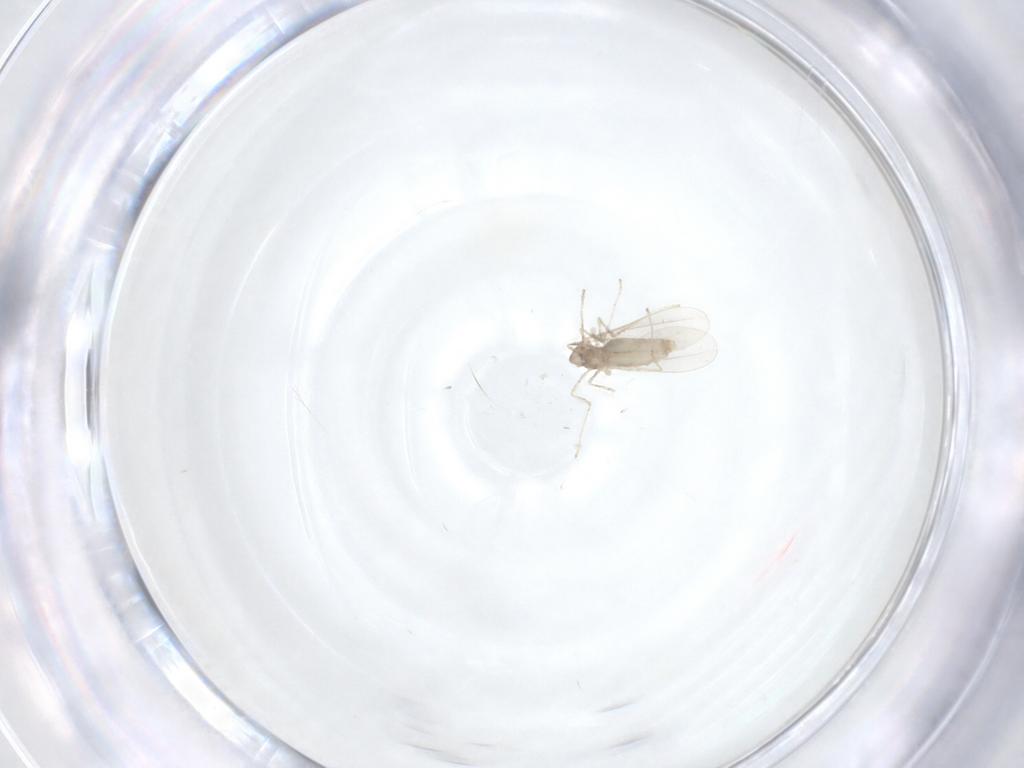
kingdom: Animalia
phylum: Arthropoda
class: Insecta
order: Diptera
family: Cecidomyiidae
